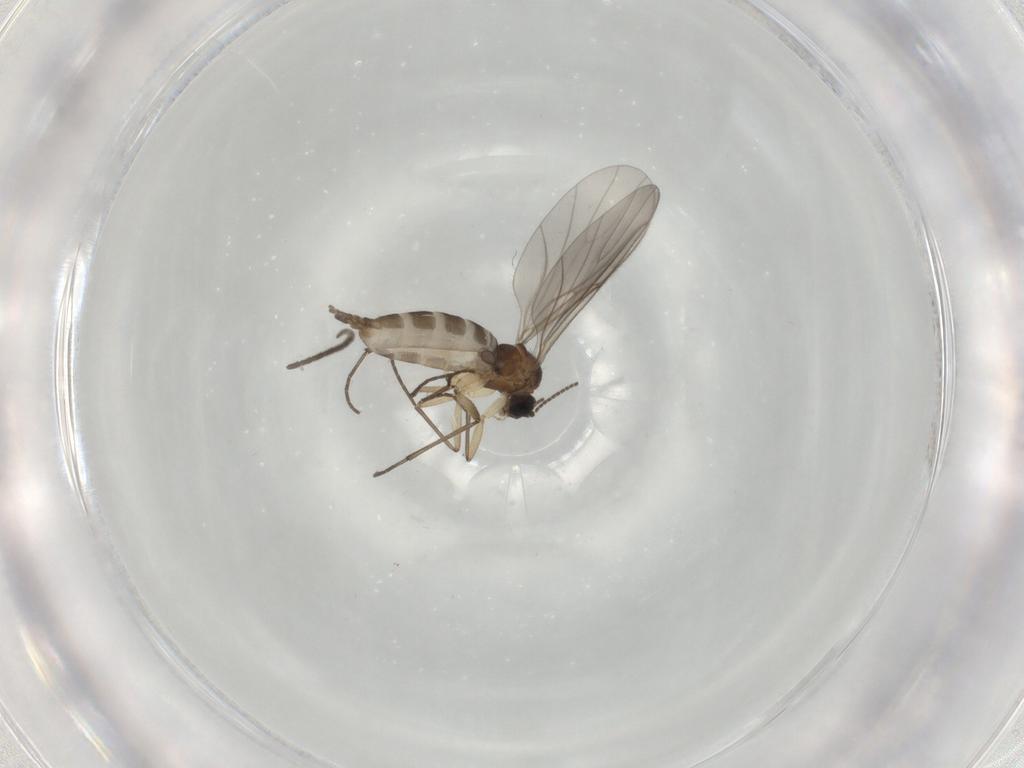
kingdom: Animalia
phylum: Arthropoda
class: Insecta
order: Diptera
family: Sciaridae
